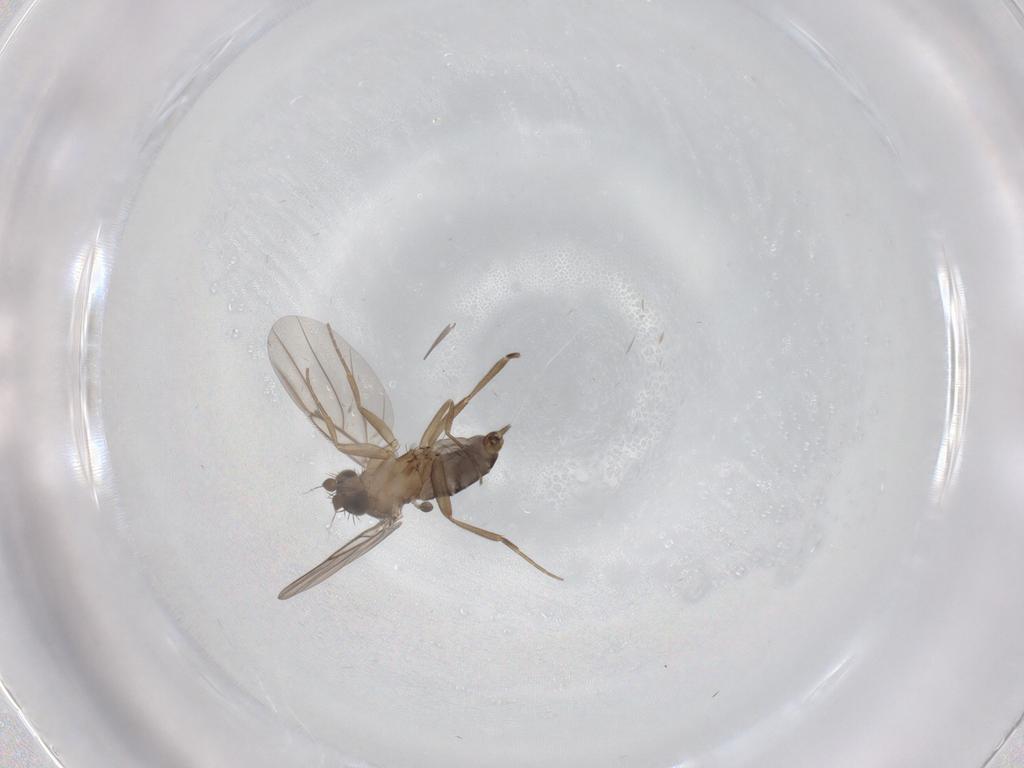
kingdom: Animalia
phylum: Arthropoda
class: Insecta
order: Diptera
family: Phoridae
